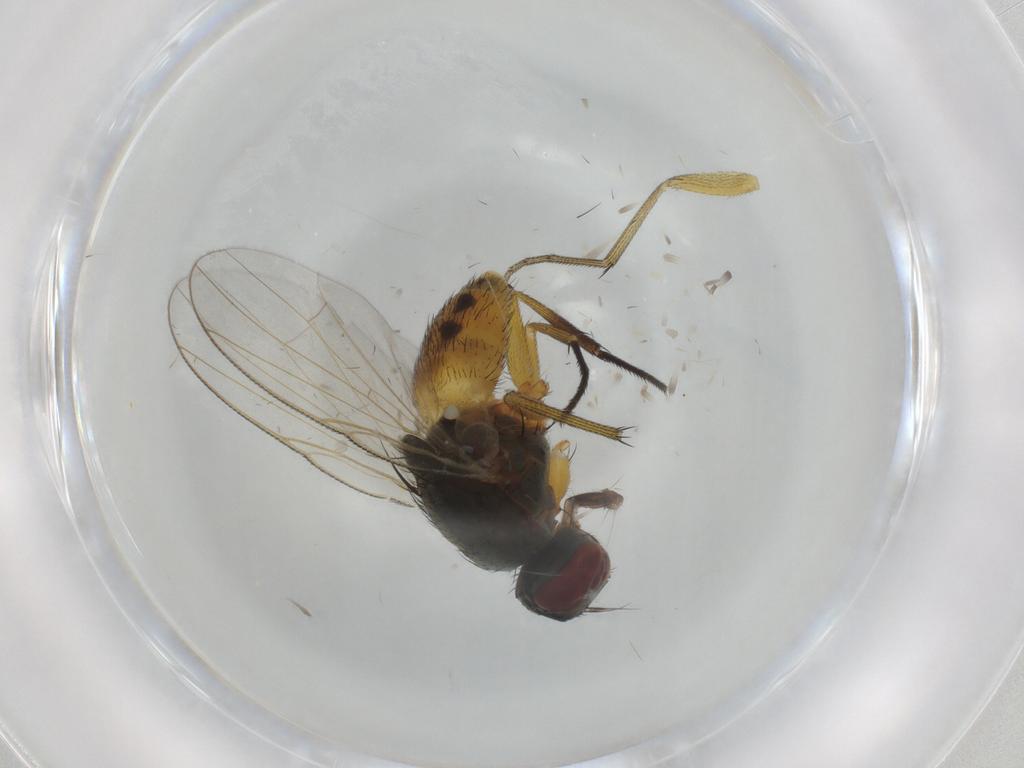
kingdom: Animalia
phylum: Arthropoda
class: Insecta
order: Diptera
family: Muscidae
